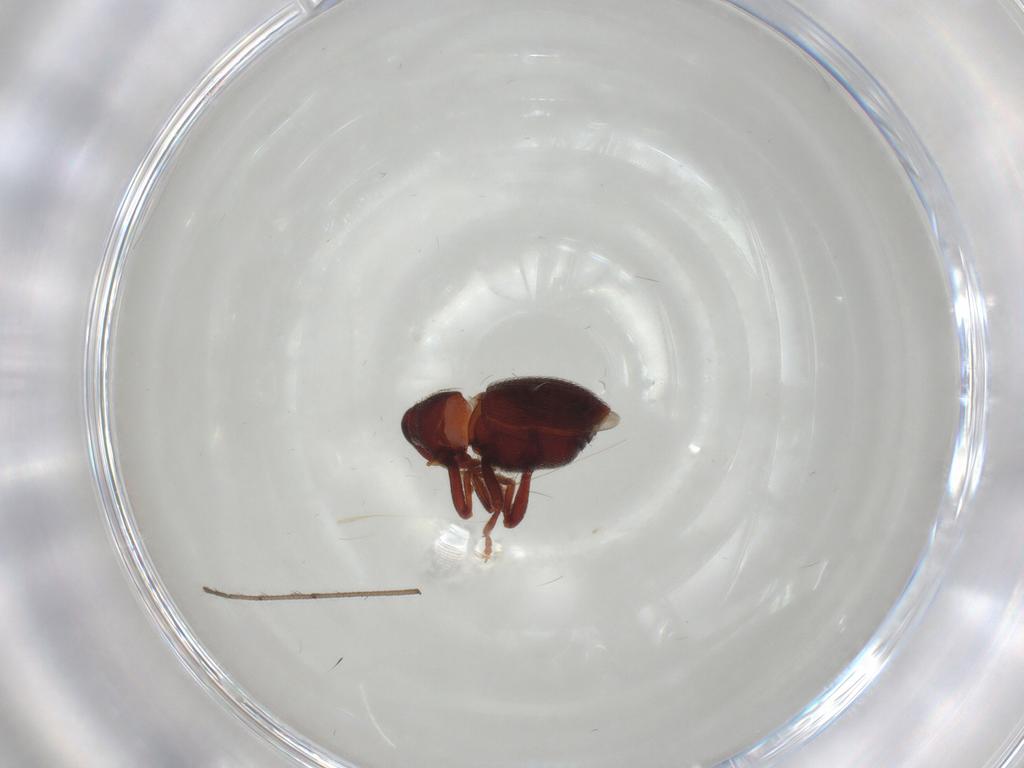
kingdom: Animalia
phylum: Arthropoda
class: Insecta
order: Coleoptera
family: Curculionidae
